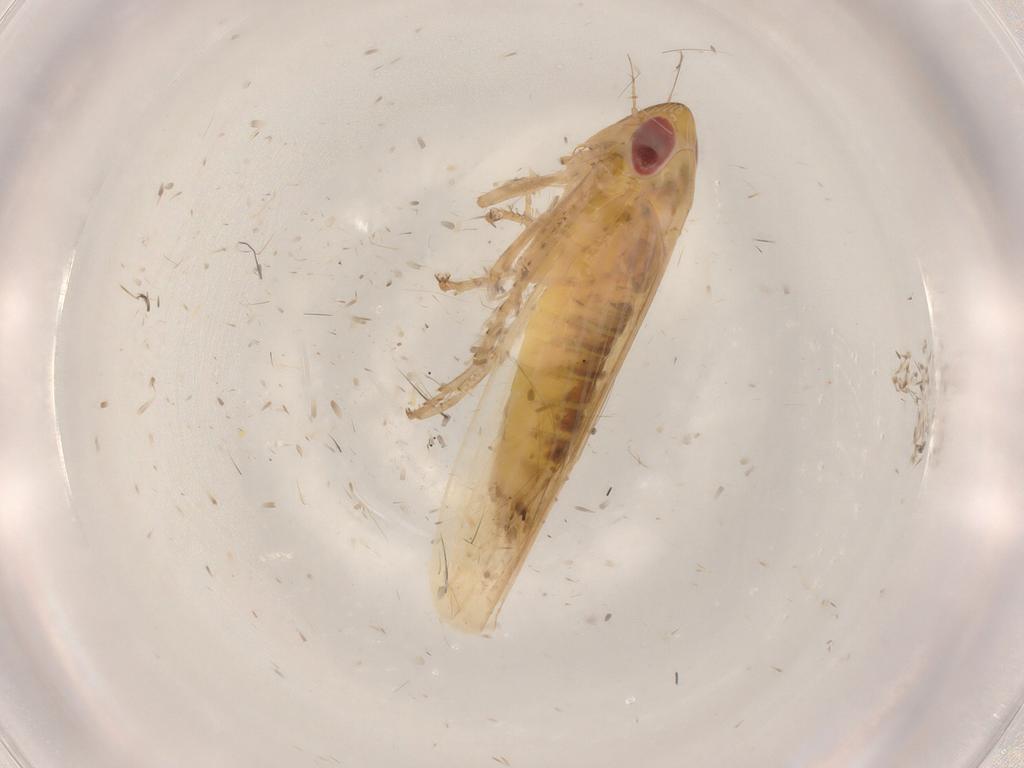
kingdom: Animalia
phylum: Arthropoda
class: Insecta
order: Hemiptera
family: Cicadellidae
